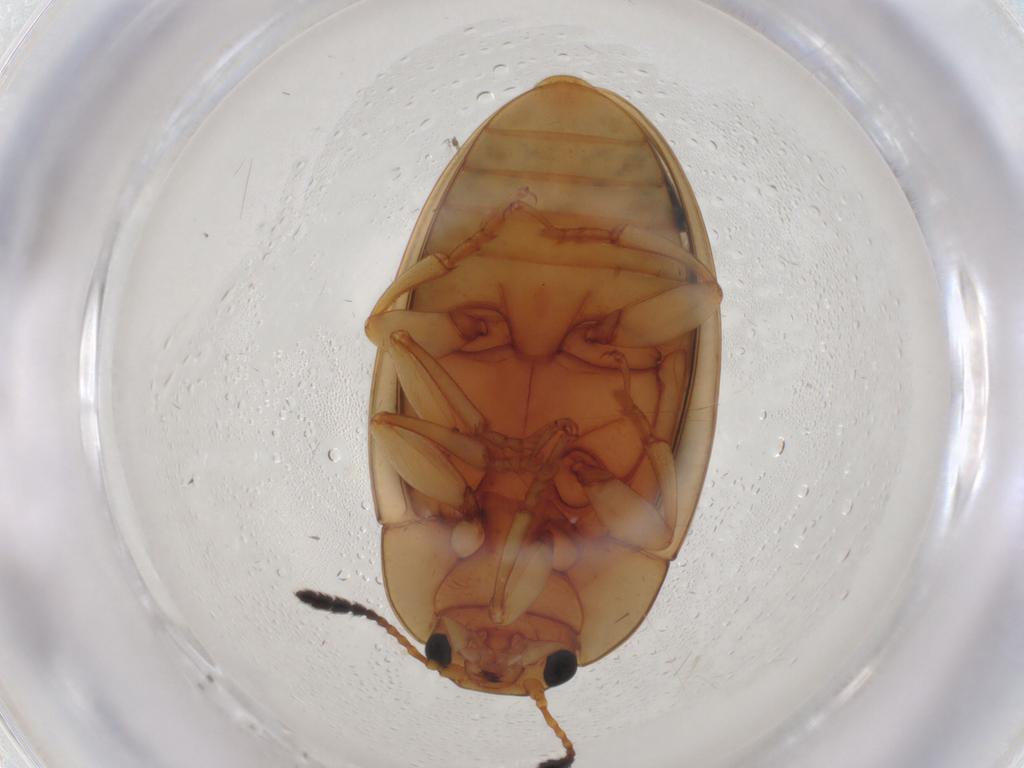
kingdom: Animalia
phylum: Arthropoda
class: Insecta
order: Coleoptera
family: Erotylidae
